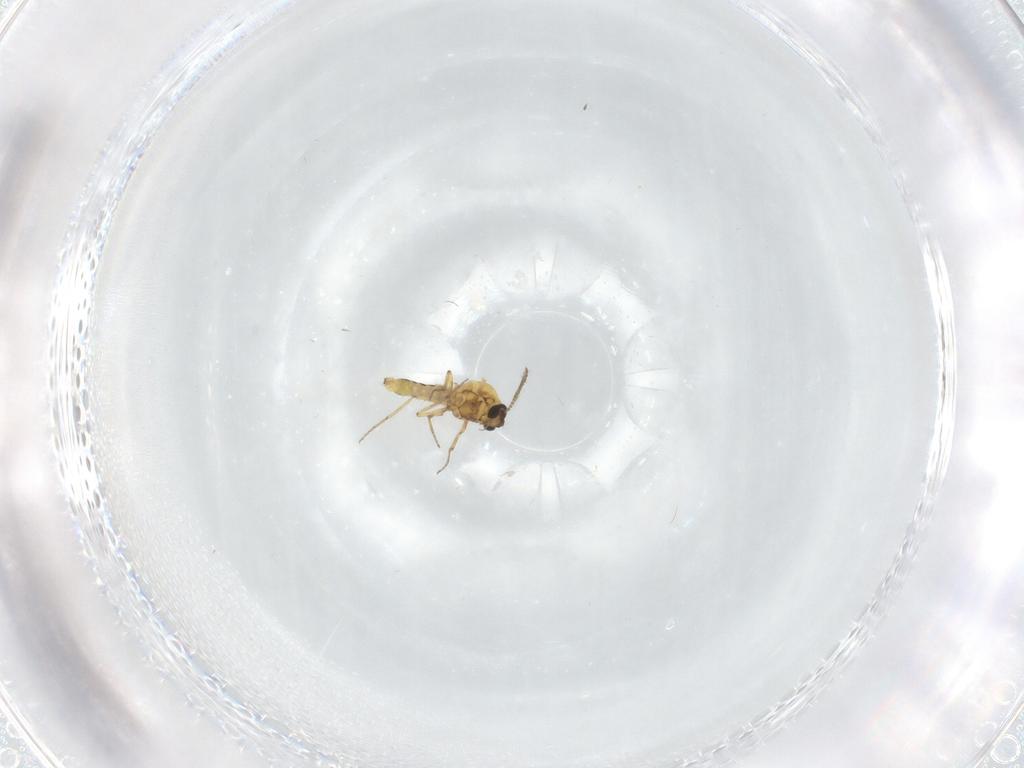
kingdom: Animalia
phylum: Arthropoda
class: Insecta
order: Diptera
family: Ceratopogonidae
